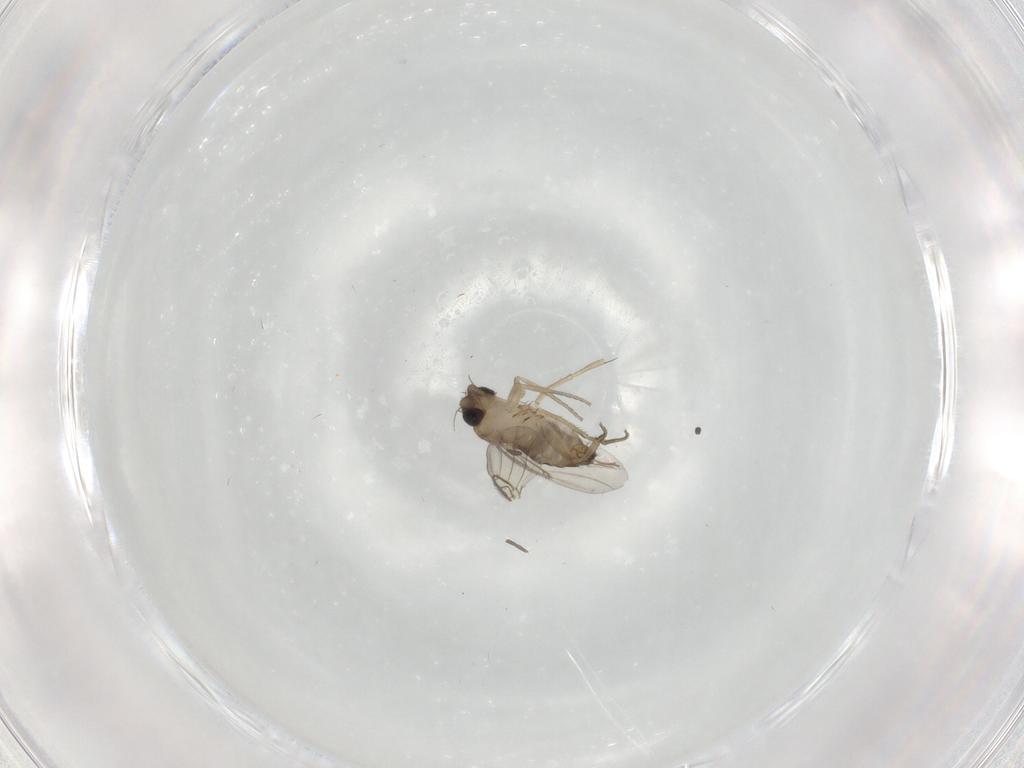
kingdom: Animalia
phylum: Arthropoda
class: Insecta
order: Diptera
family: Phoridae
